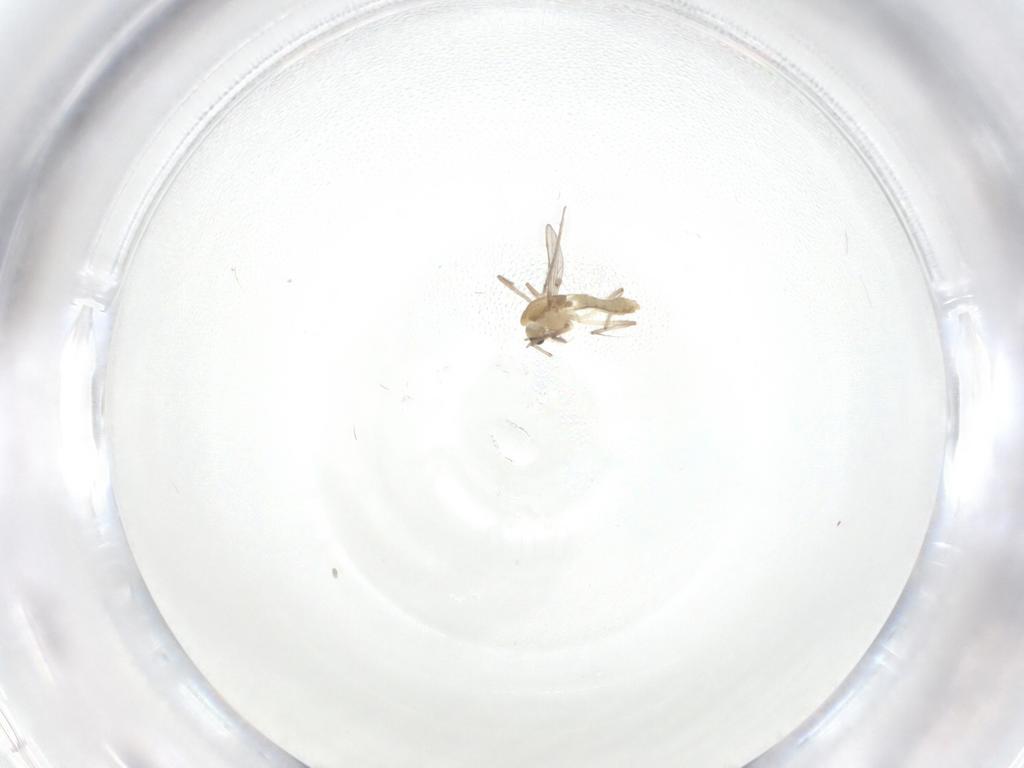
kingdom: Animalia
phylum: Arthropoda
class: Insecta
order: Diptera
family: Chironomidae
